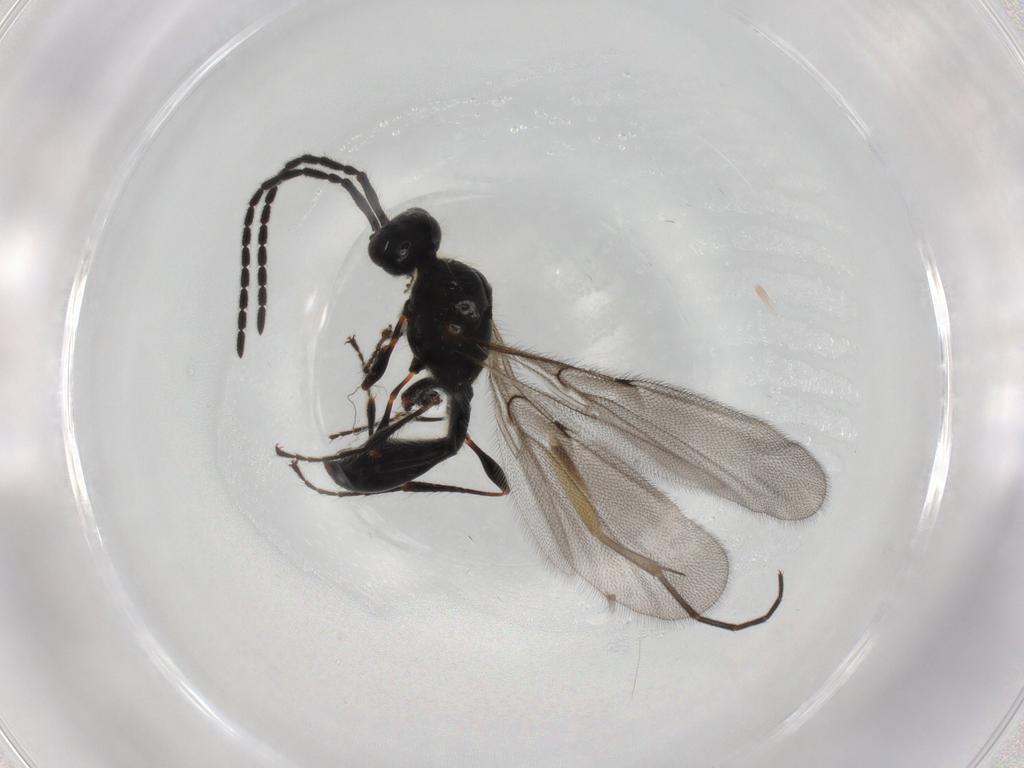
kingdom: Animalia
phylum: Arthropoda
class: Insecta
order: Hymenoptera
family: Diapriidae
